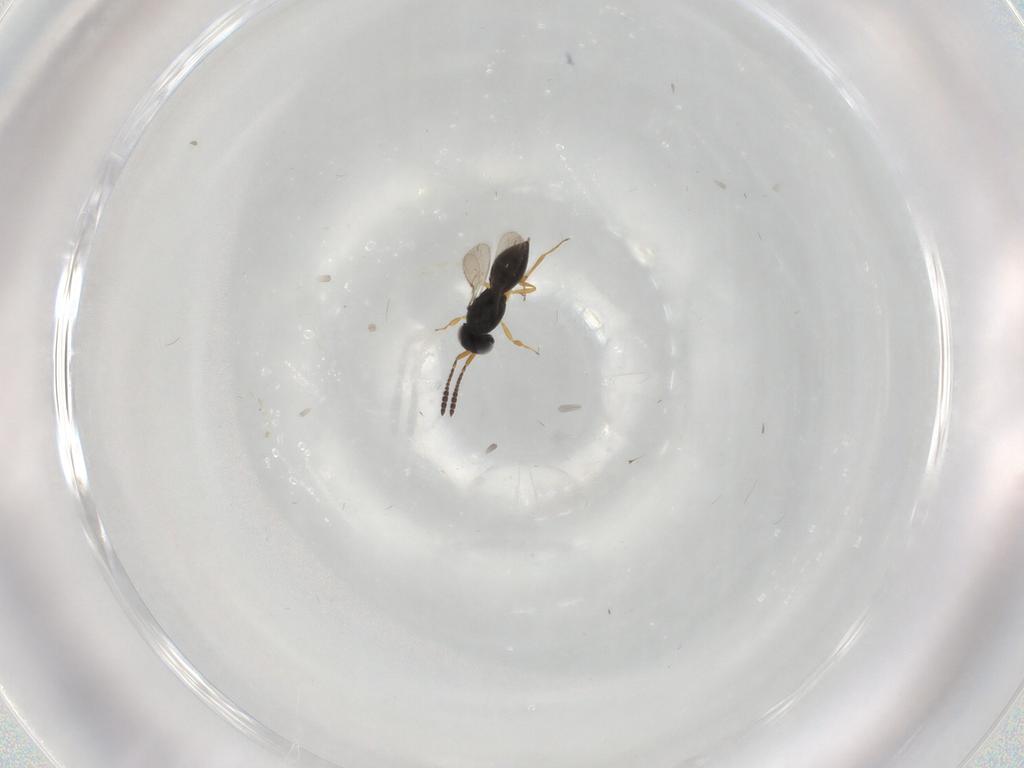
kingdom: Animalia
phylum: Arthropoda
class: Insecta
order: Hymenoptera
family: Scelionidae
